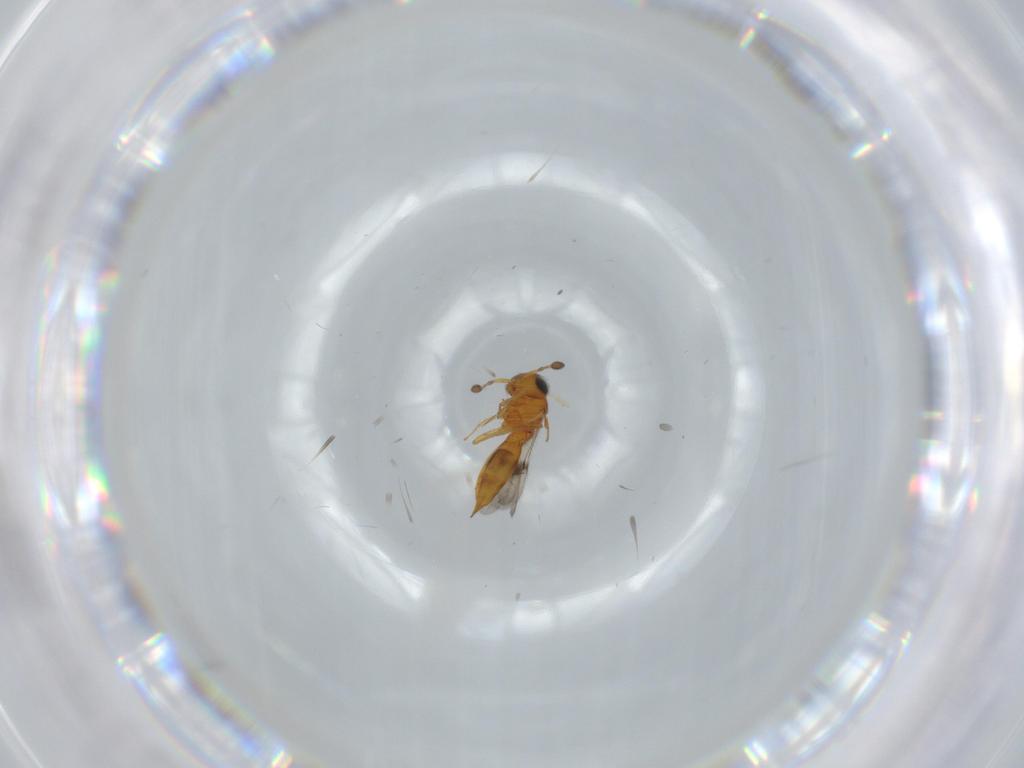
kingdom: Animalia
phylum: Arthropoda
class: Insecta
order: Hymenoptera
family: Scelionidae
